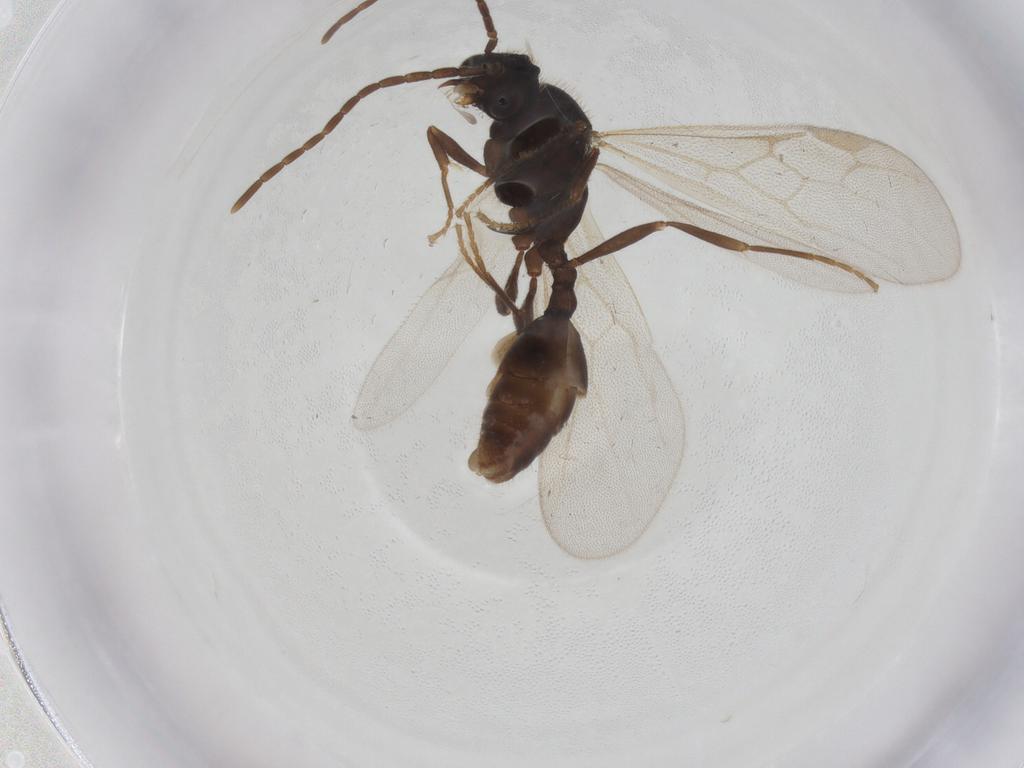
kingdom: Animalia
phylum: Arthropoda
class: Insecta
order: Hymenoptera
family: Formicidae
